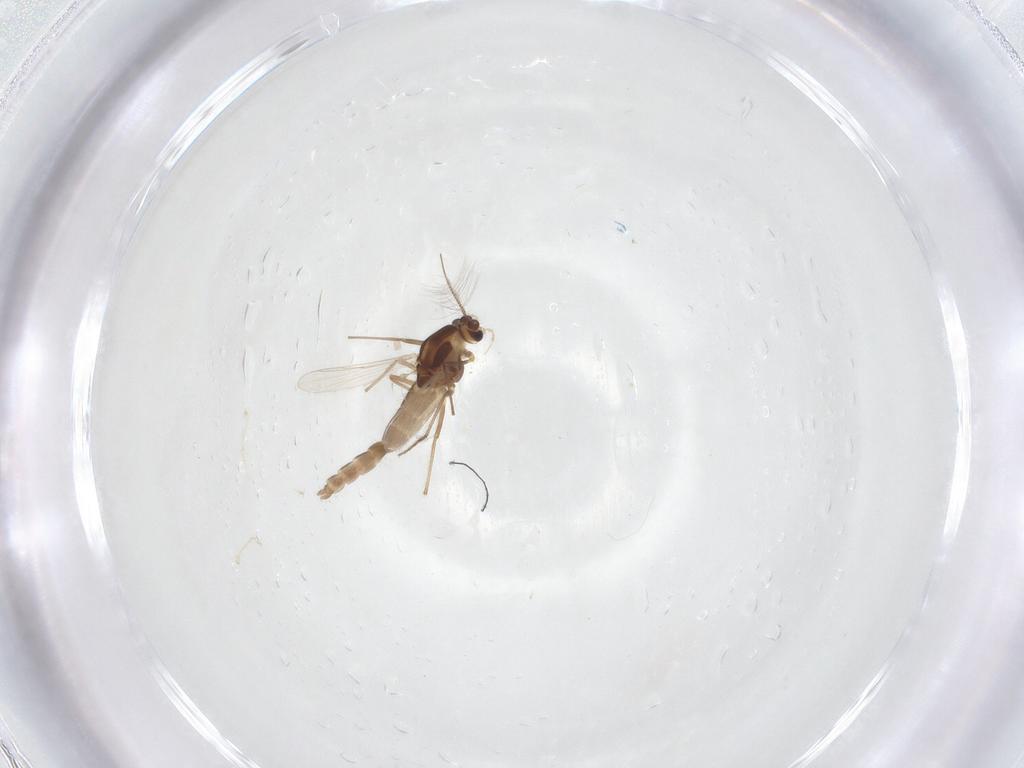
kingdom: Animalia
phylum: Arthropoda
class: Insecta
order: Diptera
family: Chironomidae
